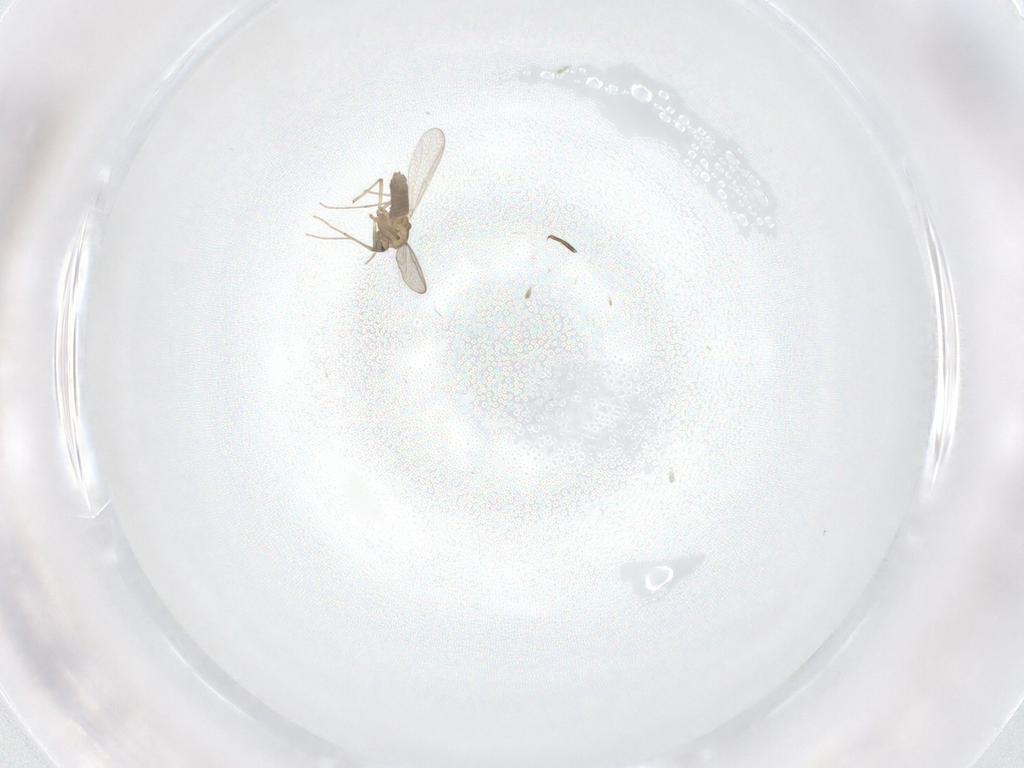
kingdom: Animalia
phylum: Arthropoda
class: Insecta
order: Diptera
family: Chironomidae
